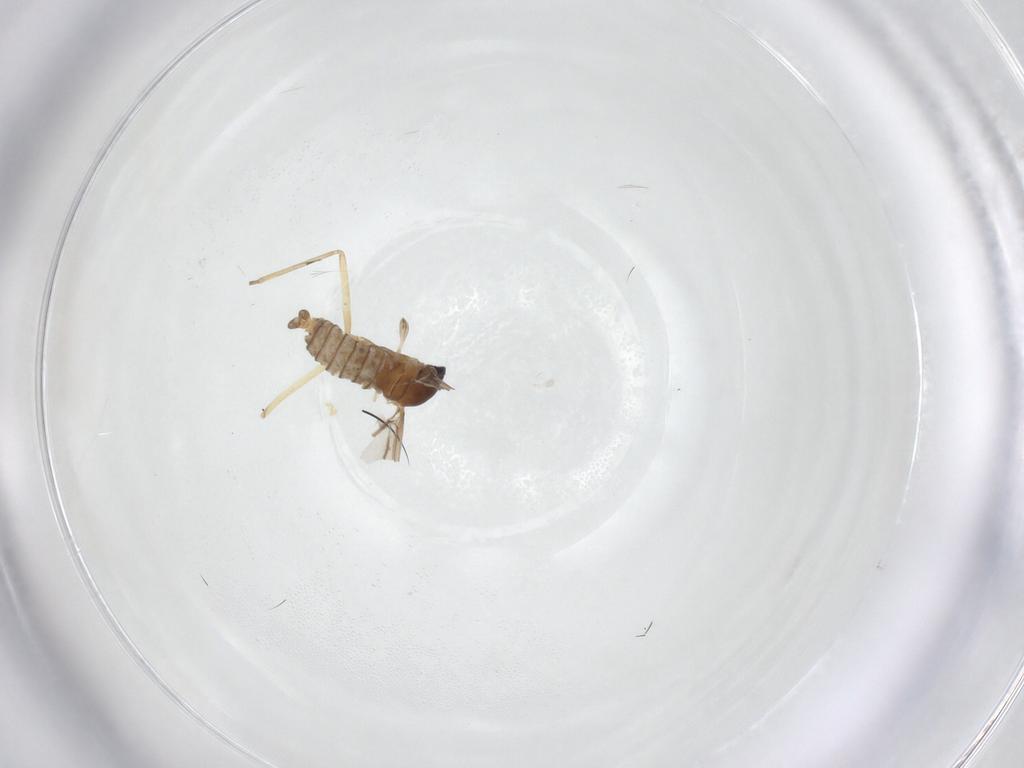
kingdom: Animalia
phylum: Arthropoda
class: Insecta
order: Diptera
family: Cecidomyiidae
